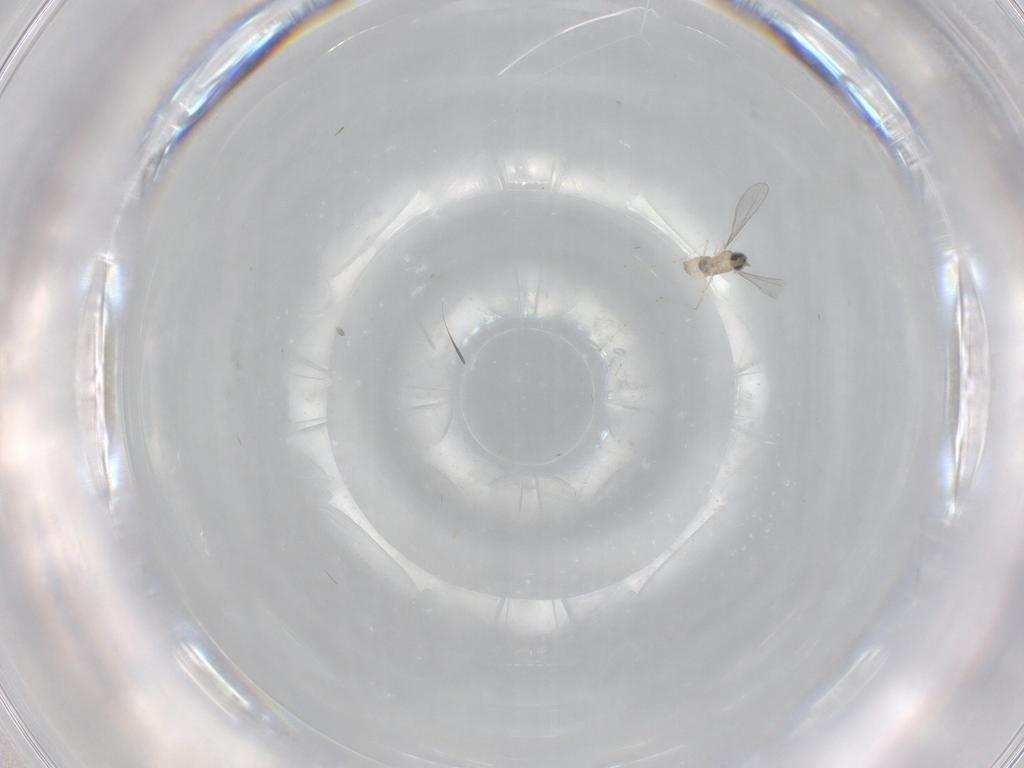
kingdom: Animalia
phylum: Arthropoda
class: Insecta
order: Diptera
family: Cecidomyiidae
